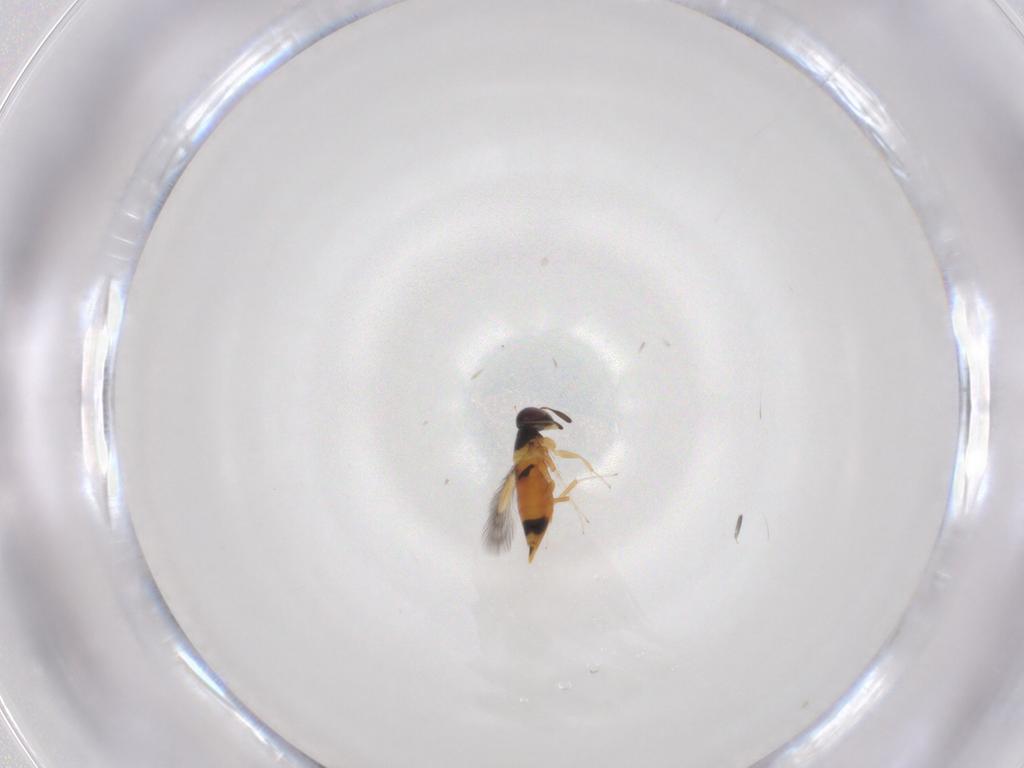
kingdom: Animalia
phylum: Arthropoda
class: Insecta
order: Hymenoptera
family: Signiphoridae
